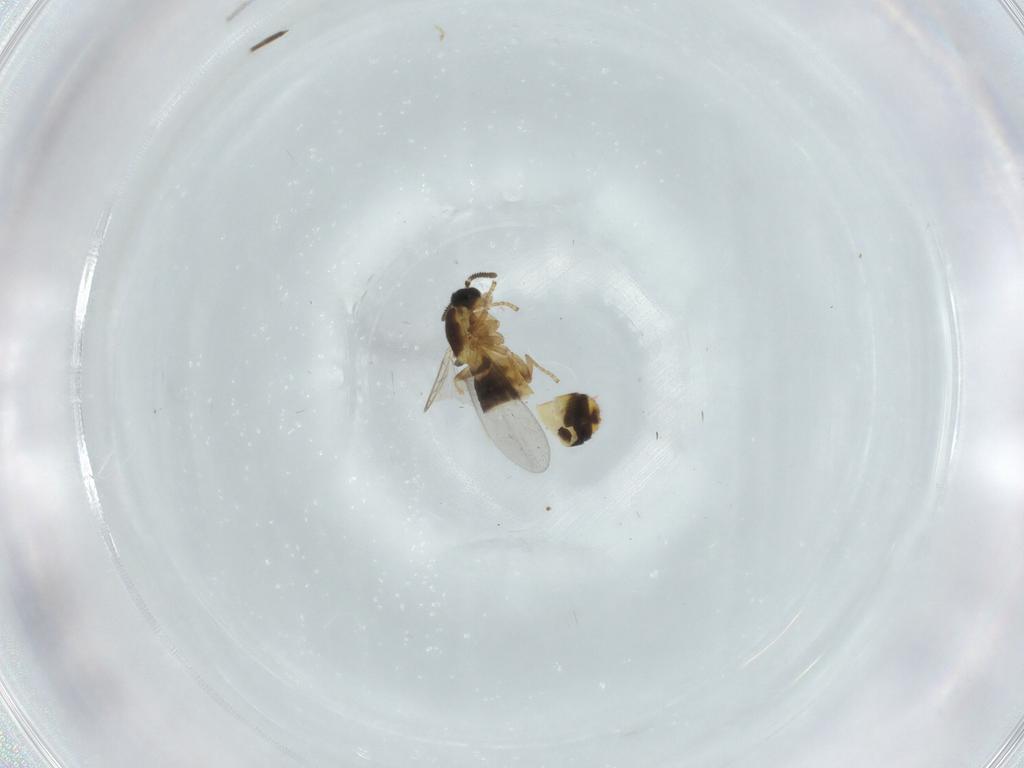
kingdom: Animalia
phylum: Arthropoda
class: Insecta
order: Diptera
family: Scatopsidae
